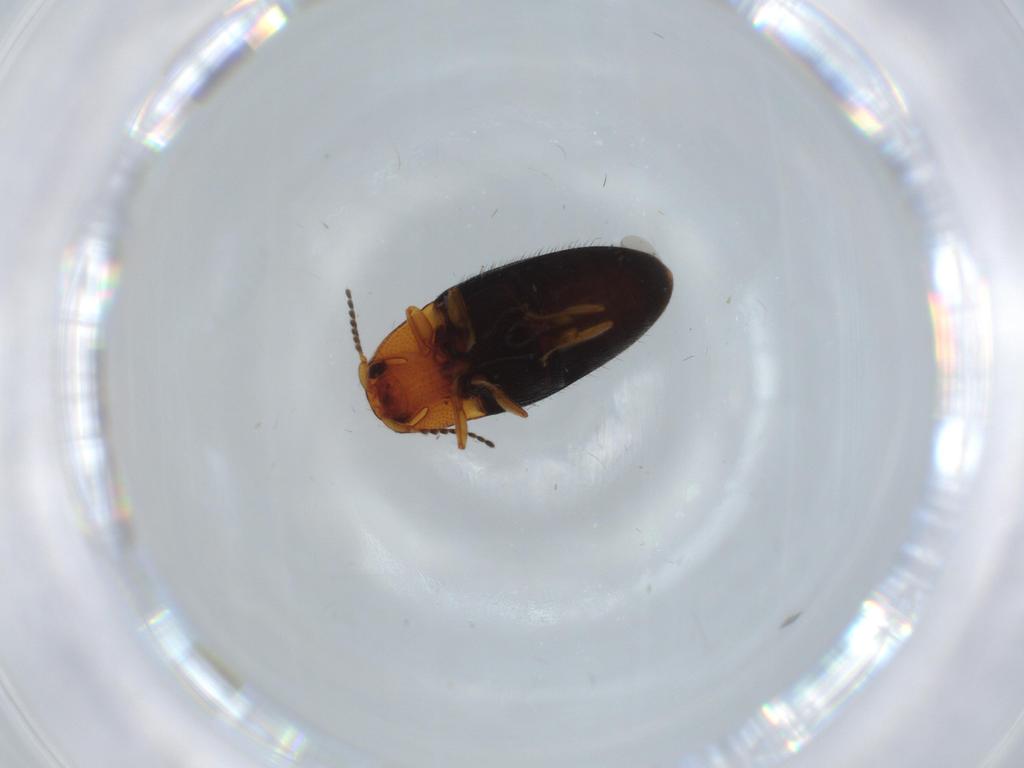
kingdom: Animalia
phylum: Arthropoda
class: Insecta
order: Coleoptera
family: Elateridae
